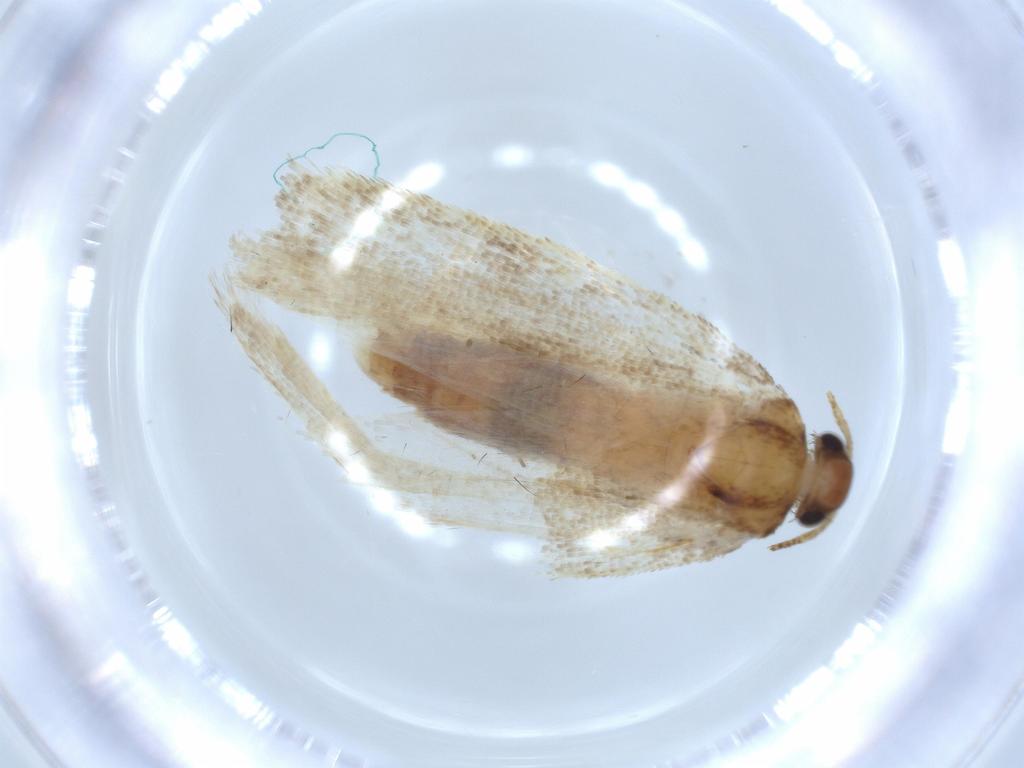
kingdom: Animalia
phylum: Arthropoda
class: Insecta
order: Lepidoptera
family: Coleophoridae
